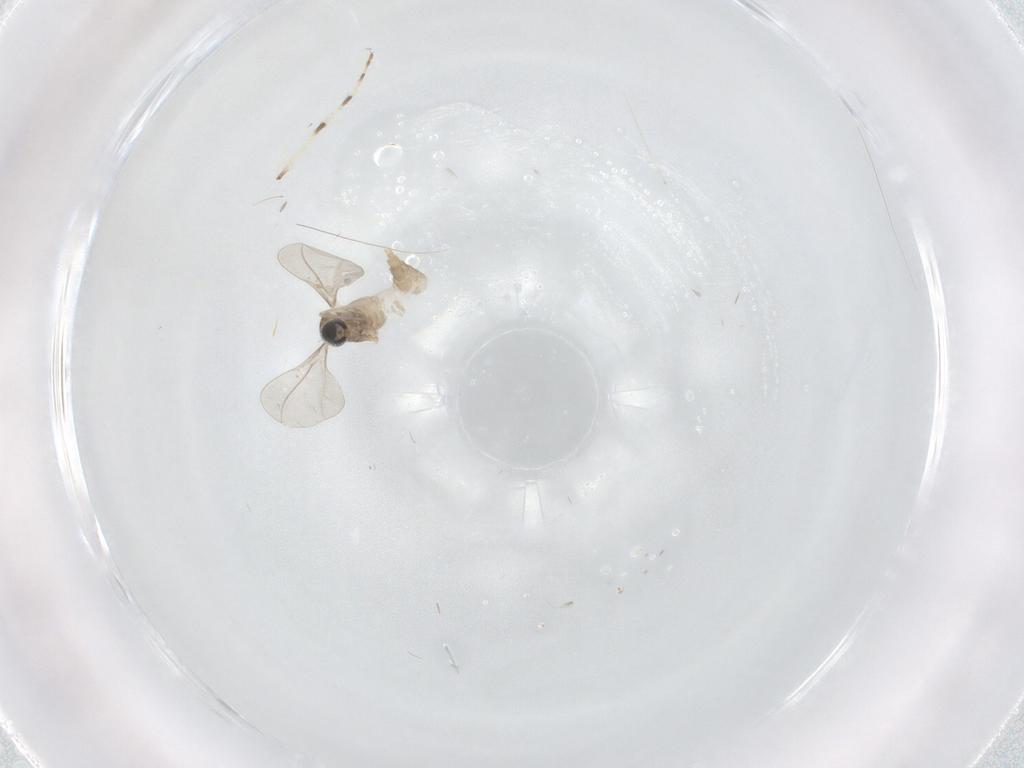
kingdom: Animalia
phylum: Arthropoda
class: Insecta
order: Diptera
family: Cecidomyiidae
